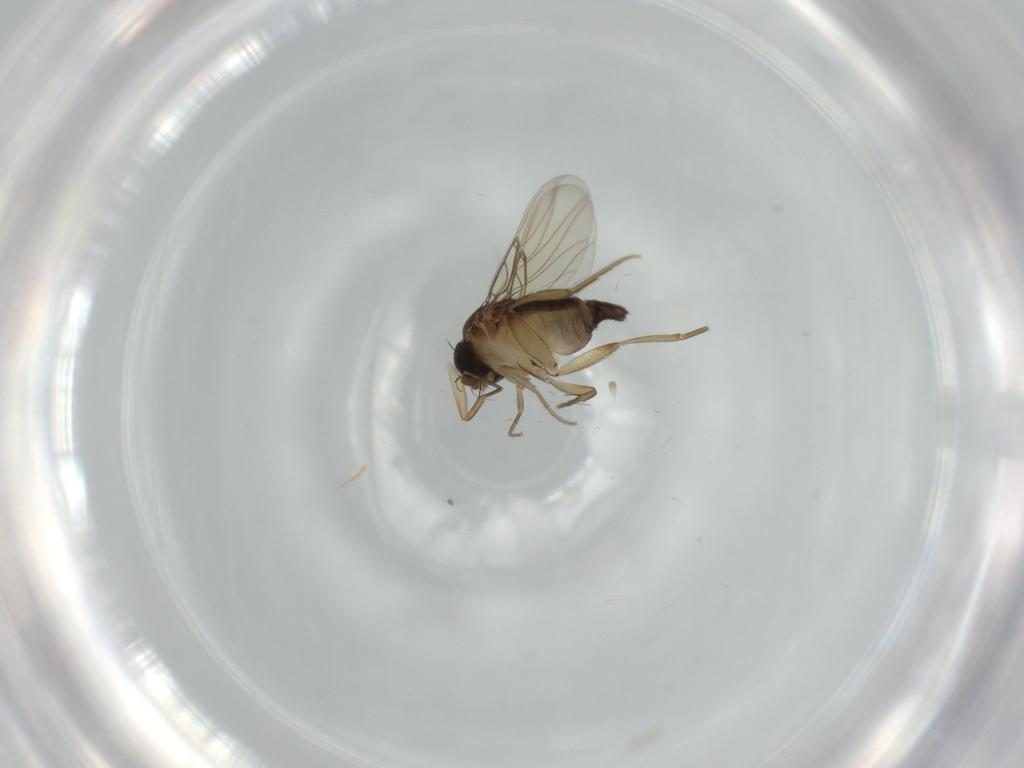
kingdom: Animalia
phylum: Arthropoda
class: Insecta
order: Diptera
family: Phoridae
